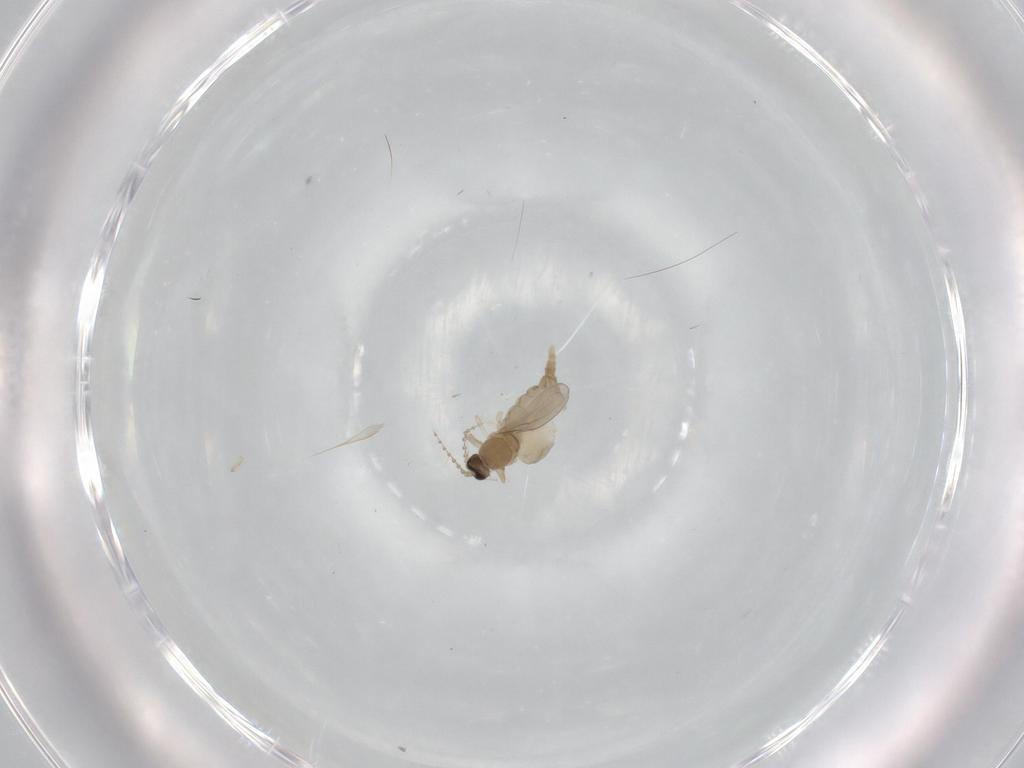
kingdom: Animalia
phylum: Arthropoda
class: Insecta
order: Diptera
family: Cecidomyiidae
